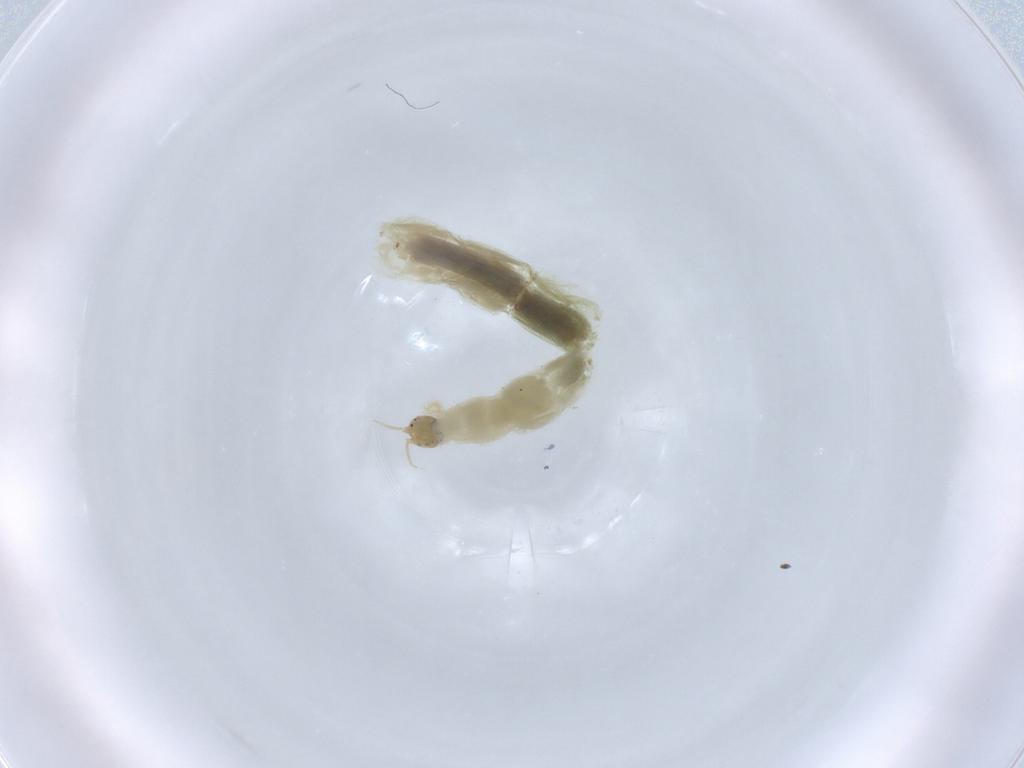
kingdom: Animalia
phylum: Arthropoda
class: Insecta
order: Diptera
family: Chironomidae
